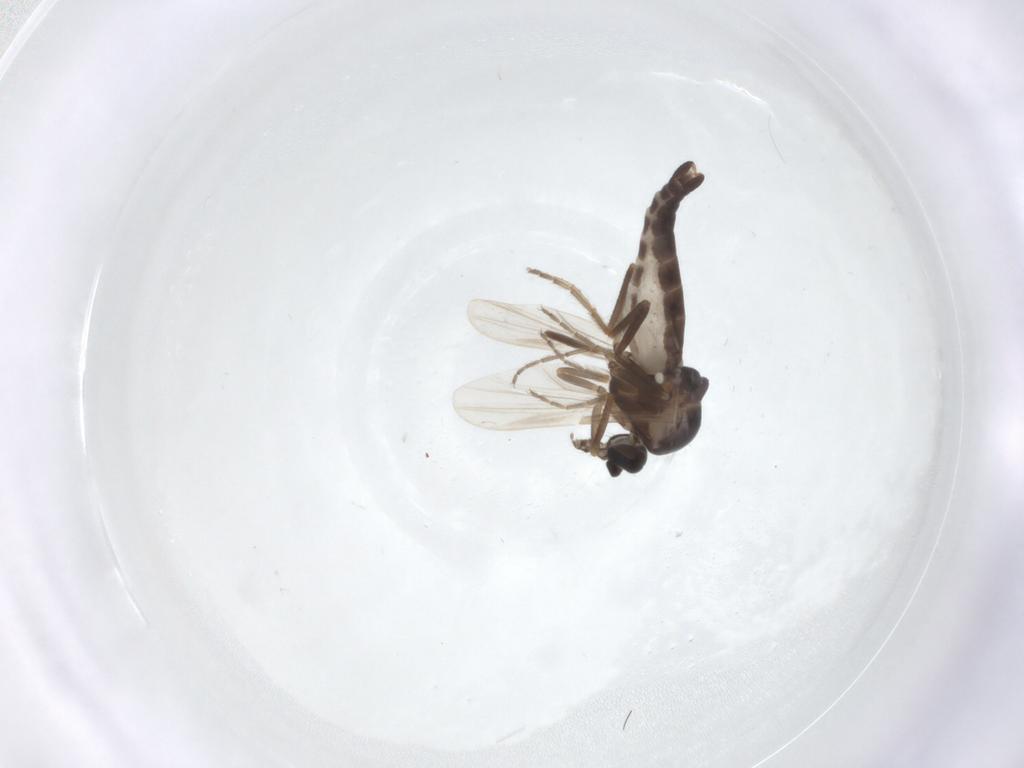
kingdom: Animalia
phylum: Arthropoda
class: Insecta
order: Diptera
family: Ceratopogonidae
